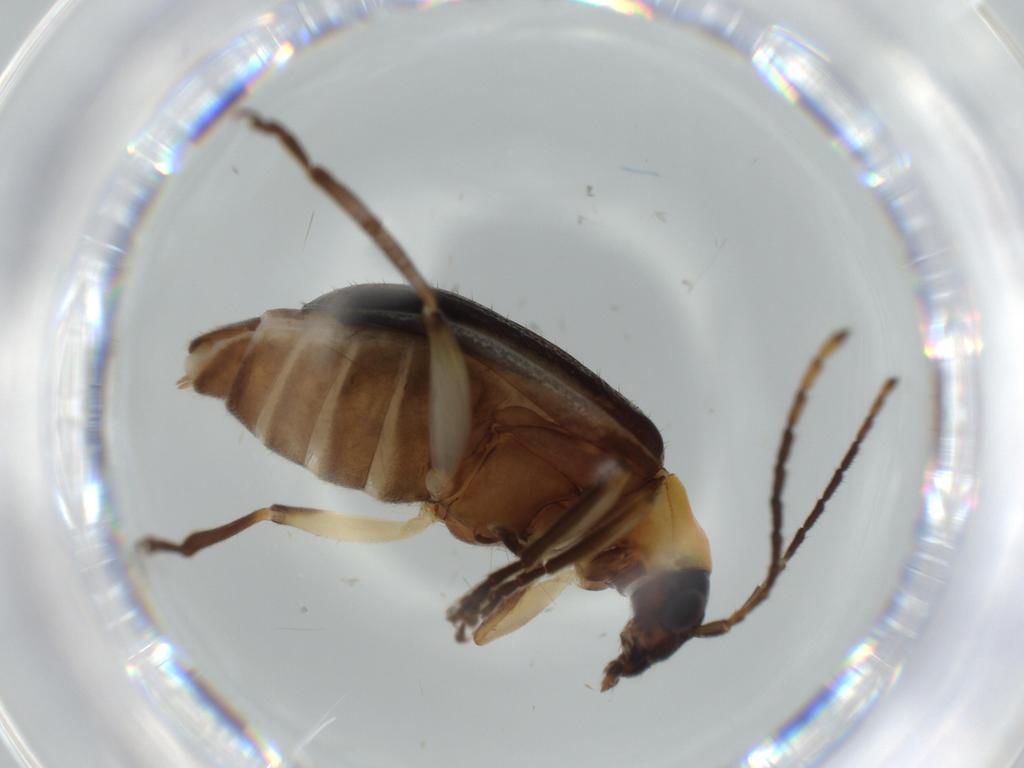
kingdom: Animalia
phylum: Arthropoda
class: Insecta
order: Coleoptera
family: Chrysomelidae
